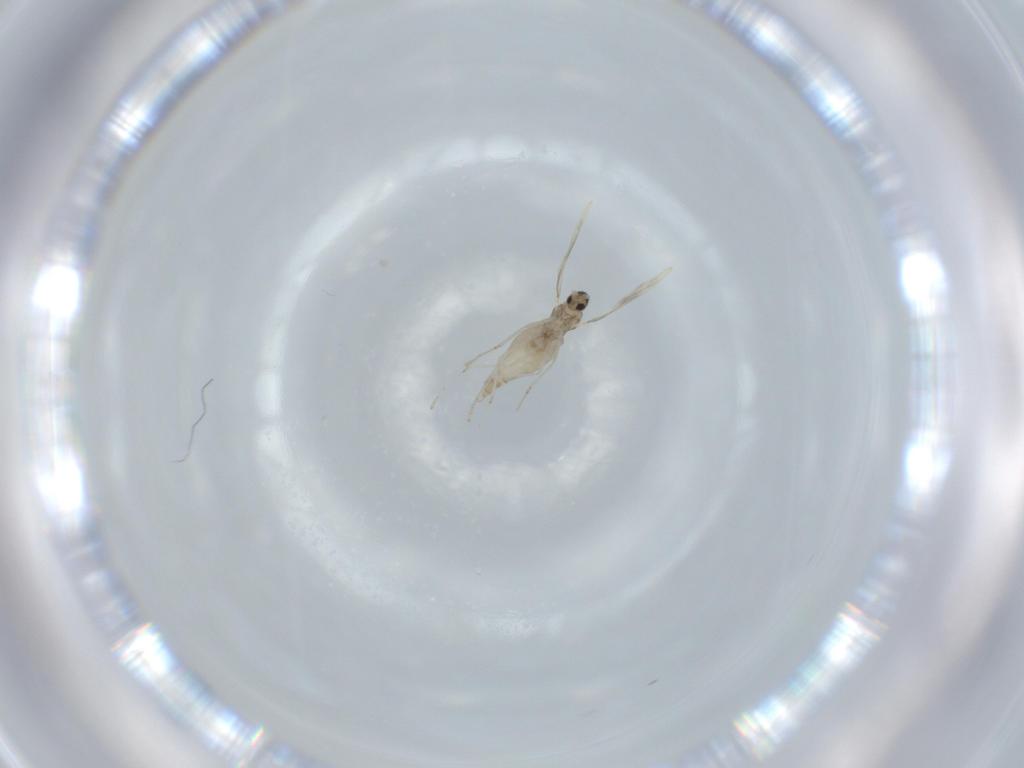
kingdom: Animalia
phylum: Arthropoda
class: Insecta
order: Diptera
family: Cecidomyiidae
